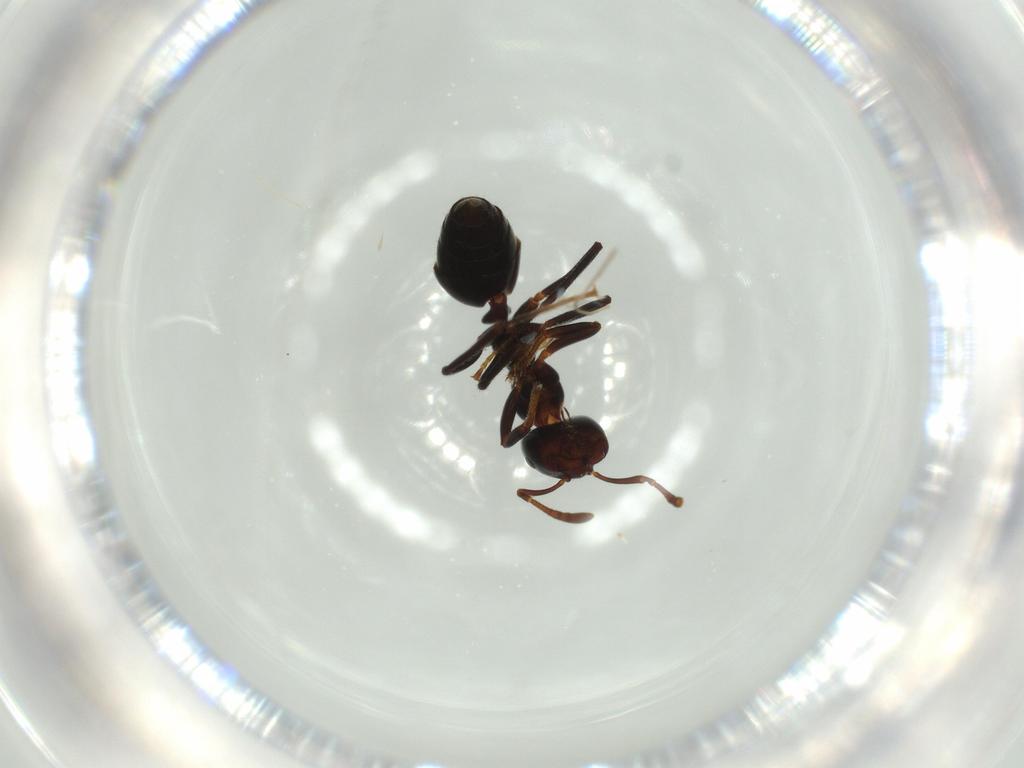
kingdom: Animalia
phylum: Arthropoda
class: Insecta
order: Hymenoptera
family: Formicidae
